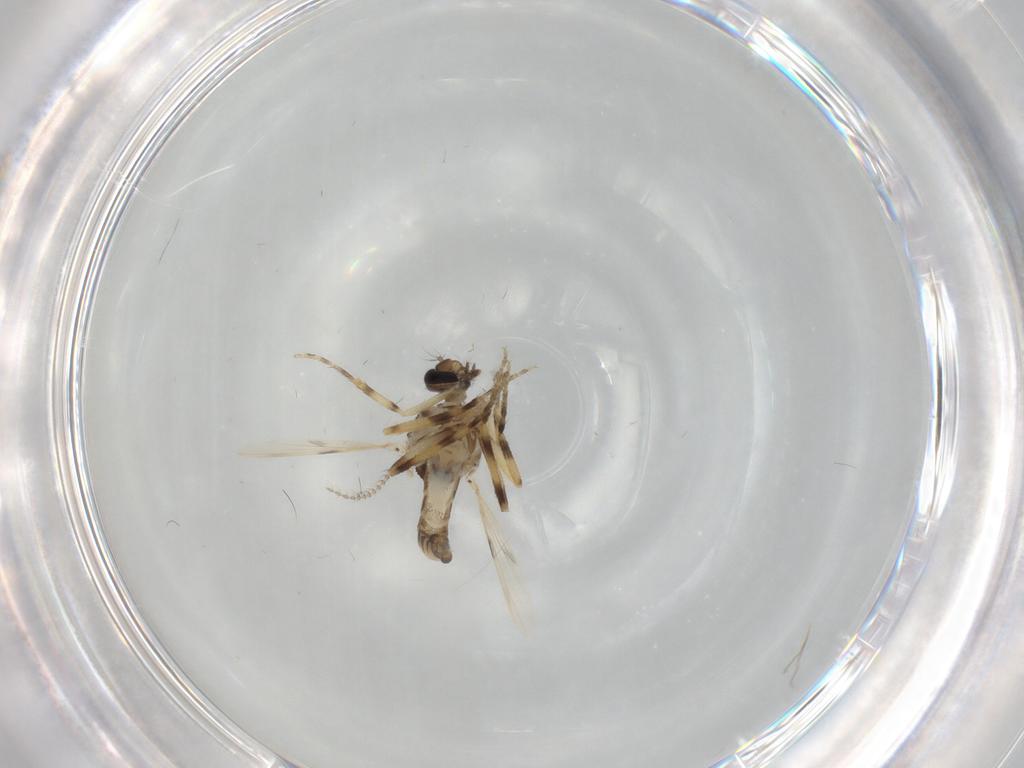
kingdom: Animalia
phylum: Arthropoda
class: Insecta
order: Diptera
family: Ceratopogonidae
